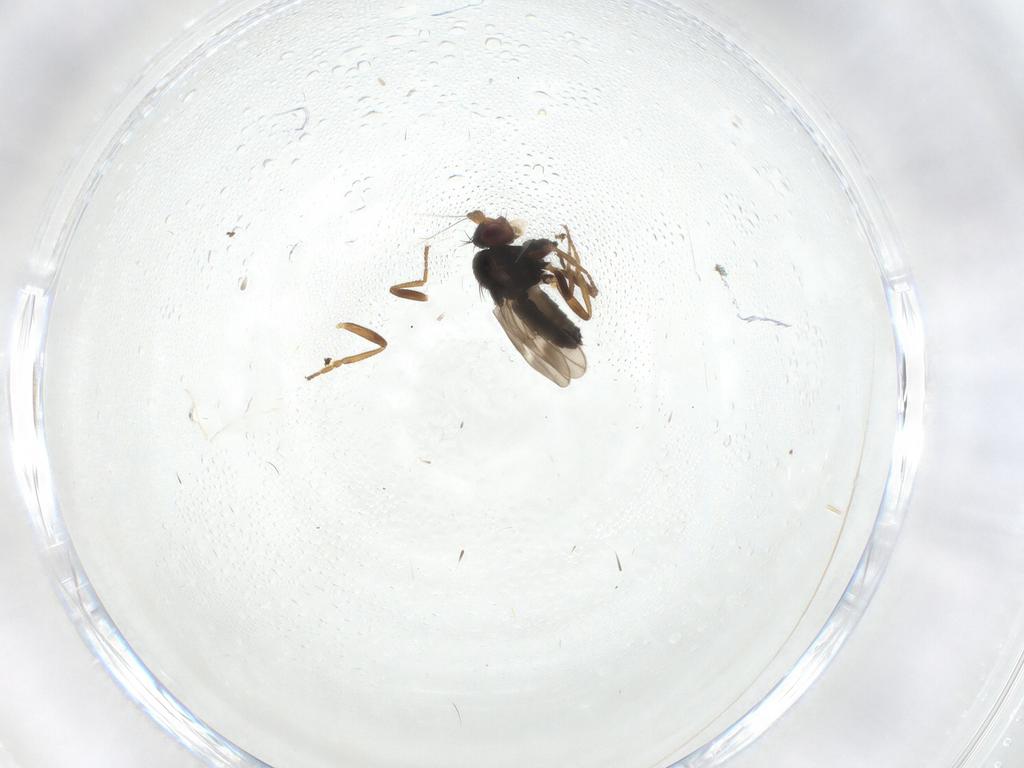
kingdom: Animalia
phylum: Arthropoda
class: Insecta
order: Diptera
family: Sphaeroceridae
